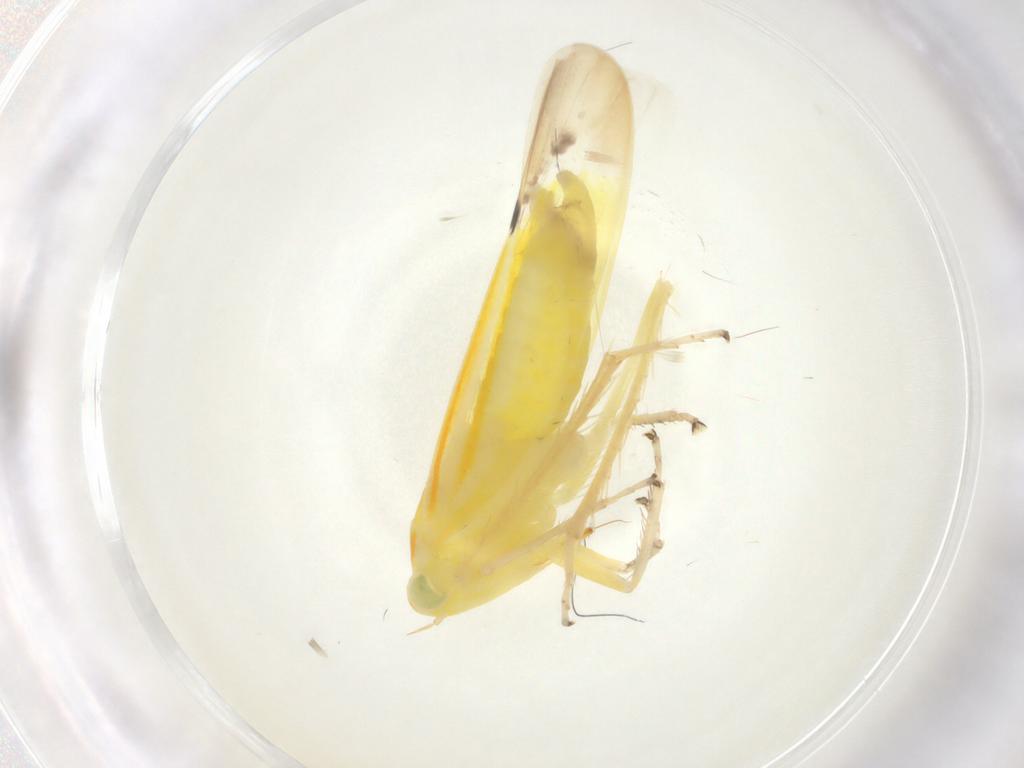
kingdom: Animalia
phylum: Arthropoda
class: Insecta
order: Hemiptera
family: Cicadellidae
